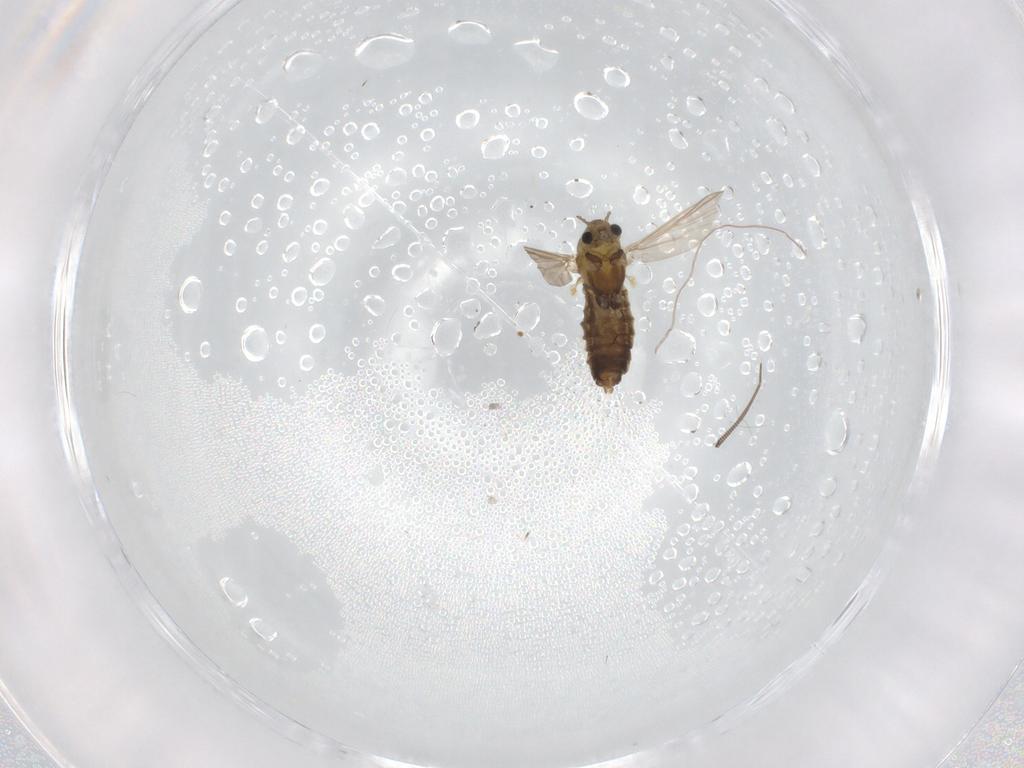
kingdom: Animalia
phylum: Arthropoda
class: Insecta
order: Diptera
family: Chironomidae
